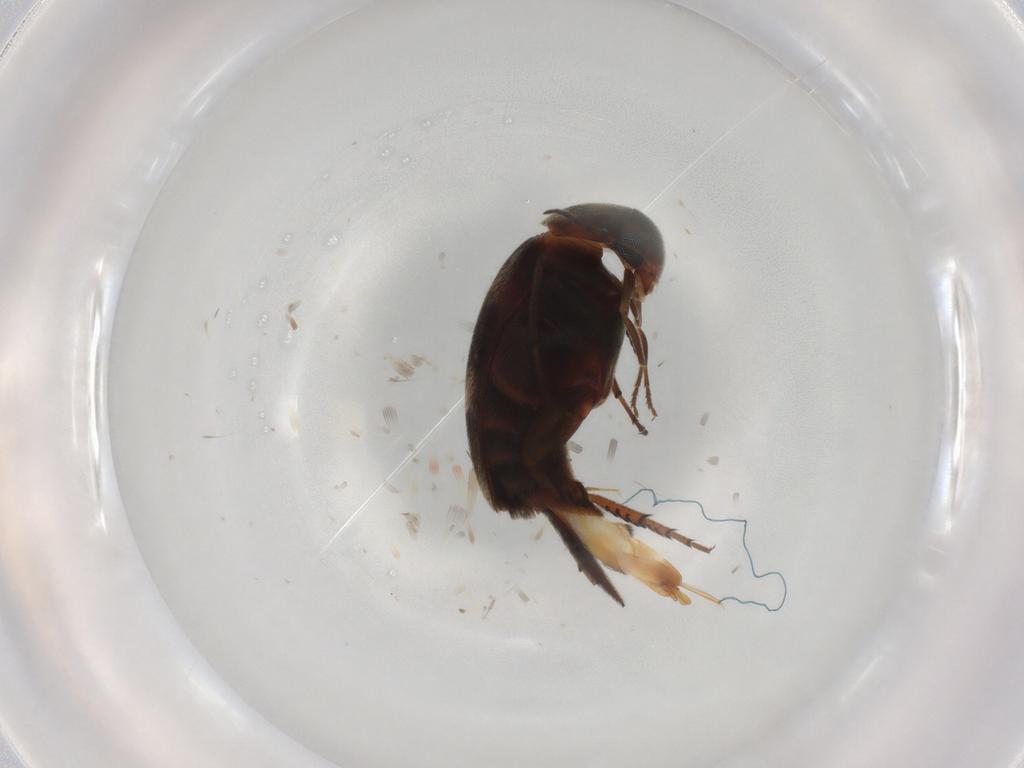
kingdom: Animalia
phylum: Arthropoda
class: Insecta
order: Coleoptera
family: Mordellidae
